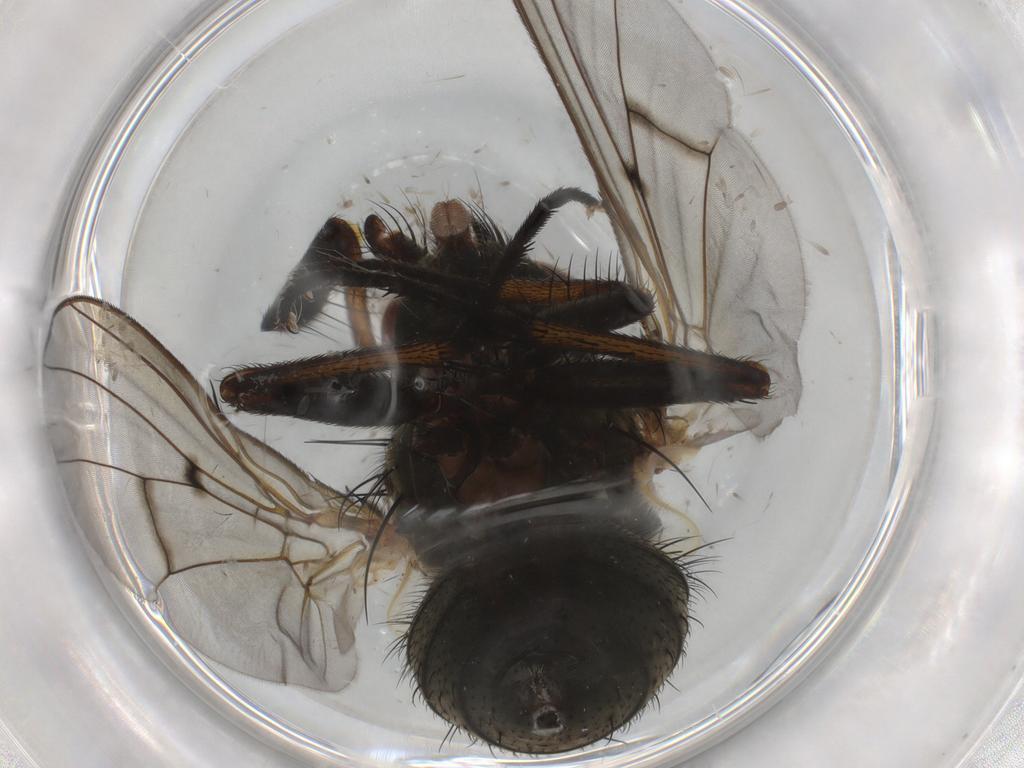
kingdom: Animalia
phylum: Arthropoda
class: Insecta
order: Diptera
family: Muscidae
